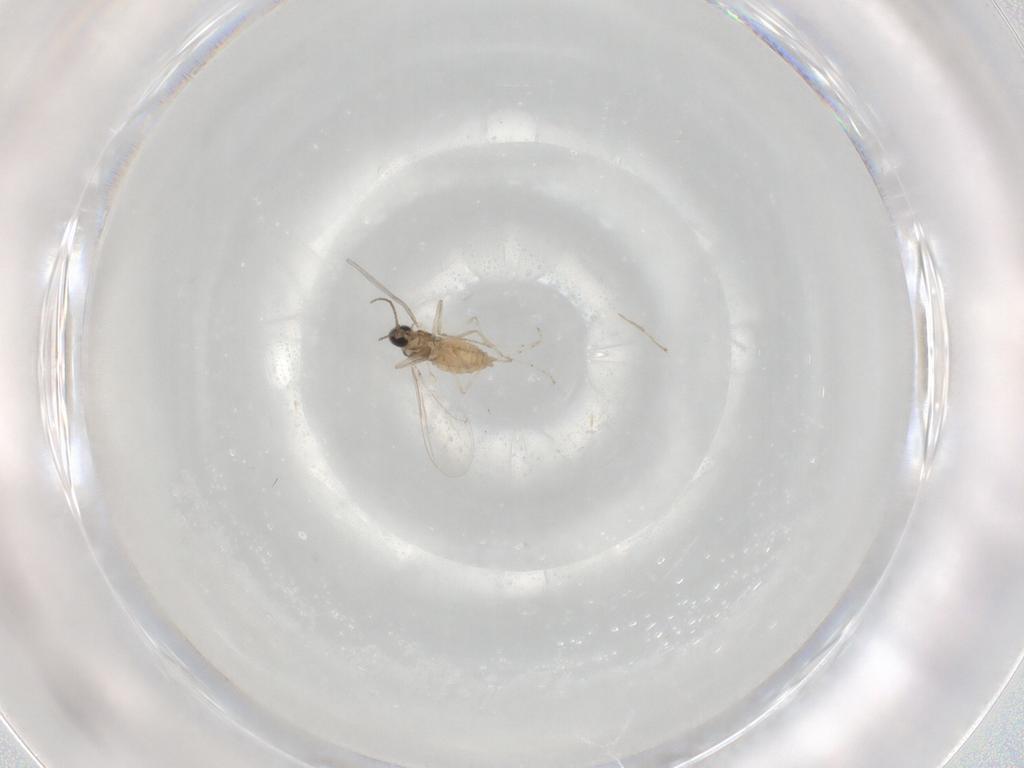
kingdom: Animalia
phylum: Arthropoda
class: Insecta
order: Diptera
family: Cecidomyiidae
